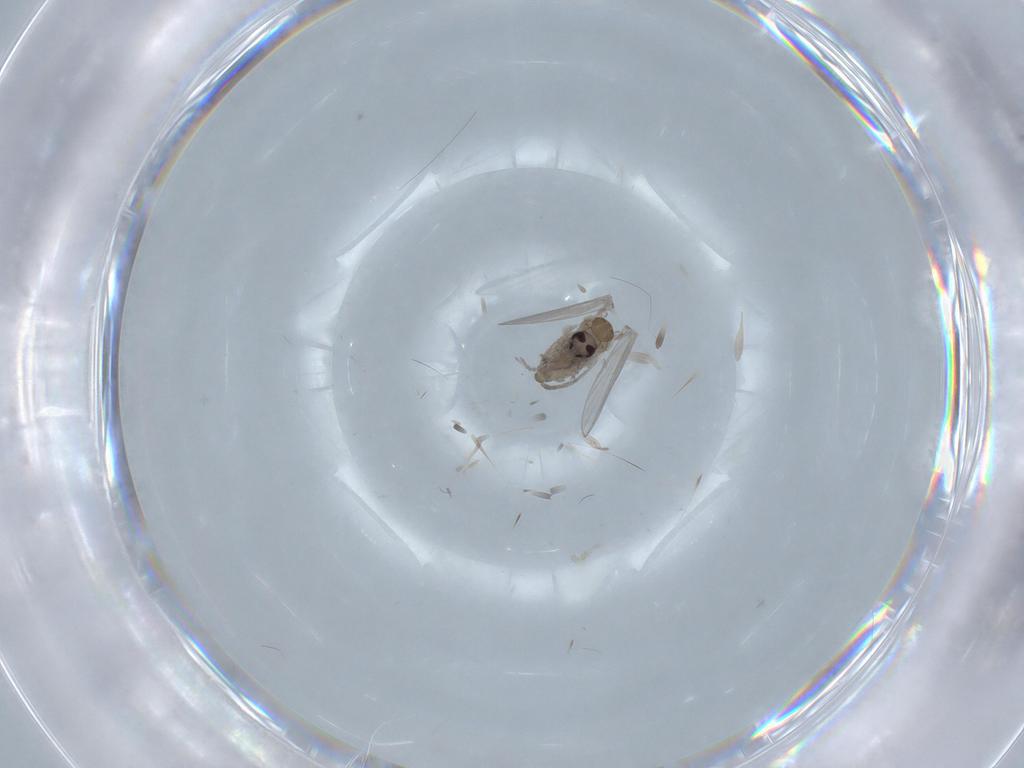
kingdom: Animalia
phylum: Arthropoda
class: Insecta
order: Diptera
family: Psychodidae
